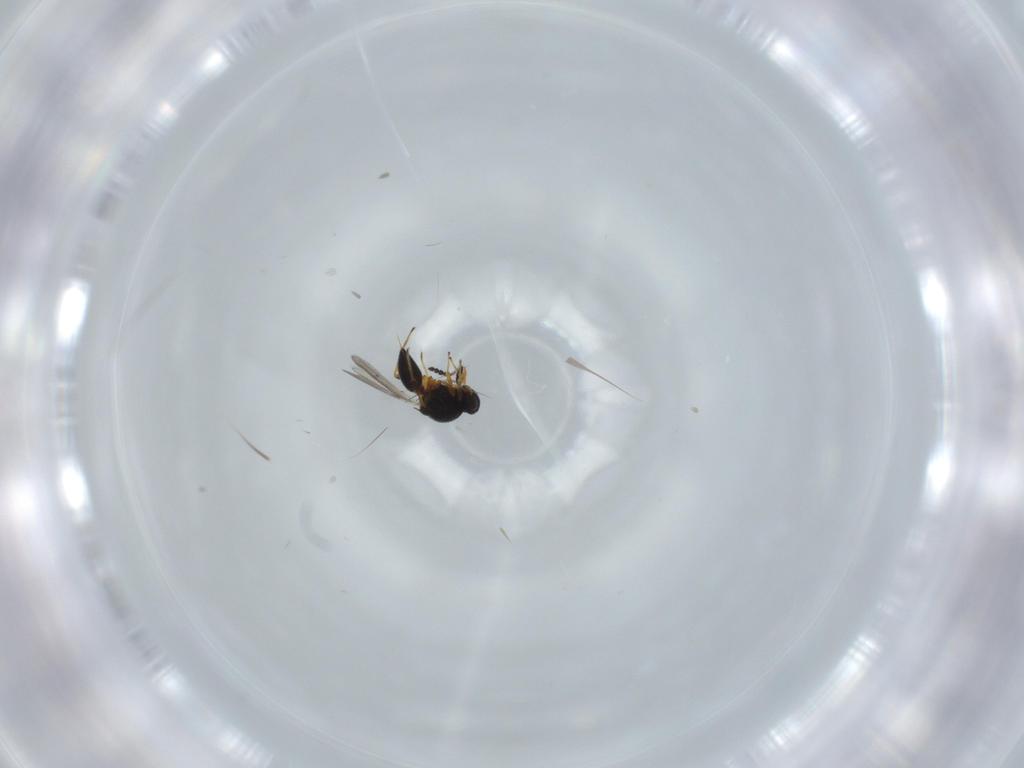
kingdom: Animalia
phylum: Arthropoda
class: Insecta
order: Hymenoptera
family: Platygastridae
